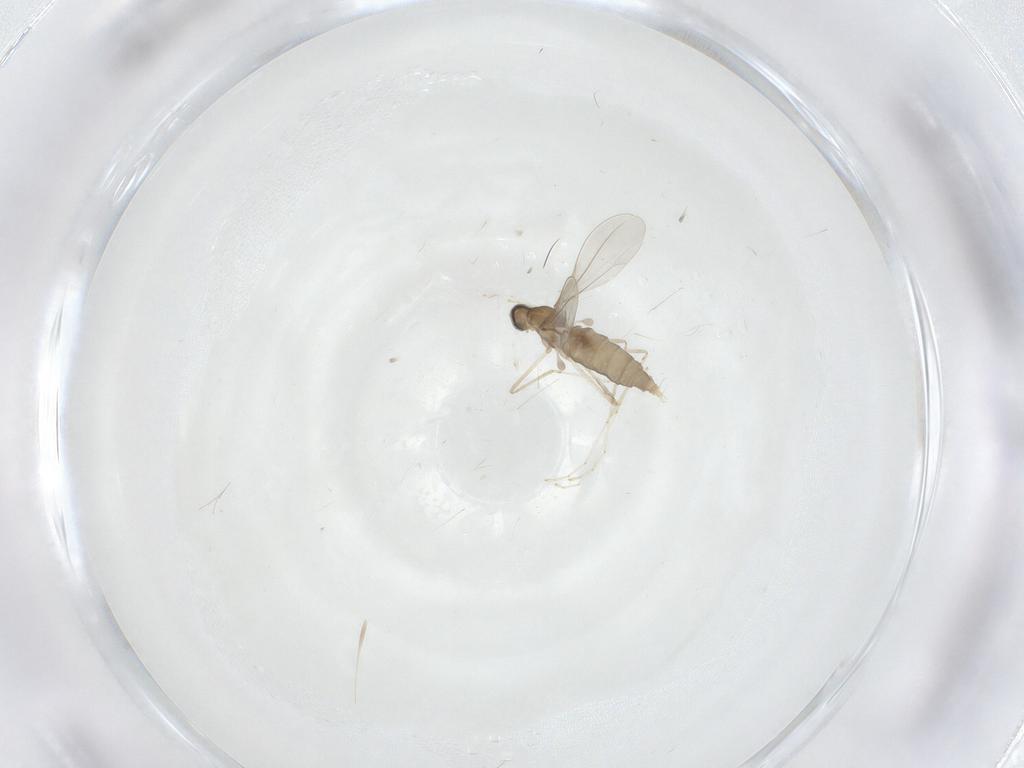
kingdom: Animalia
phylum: Arthropoda
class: Insecta
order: Diptera
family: Cecidomyiidae
